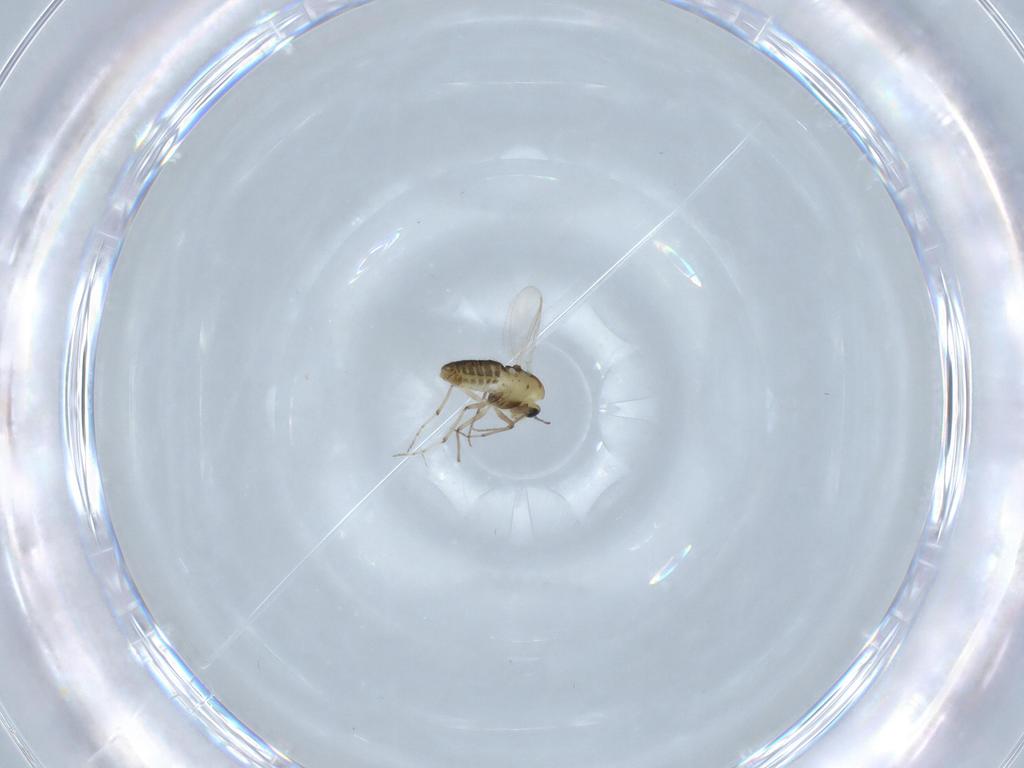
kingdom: Animalia
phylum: Arthropoda
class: Insecta
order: Diptera
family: Chironomidae
